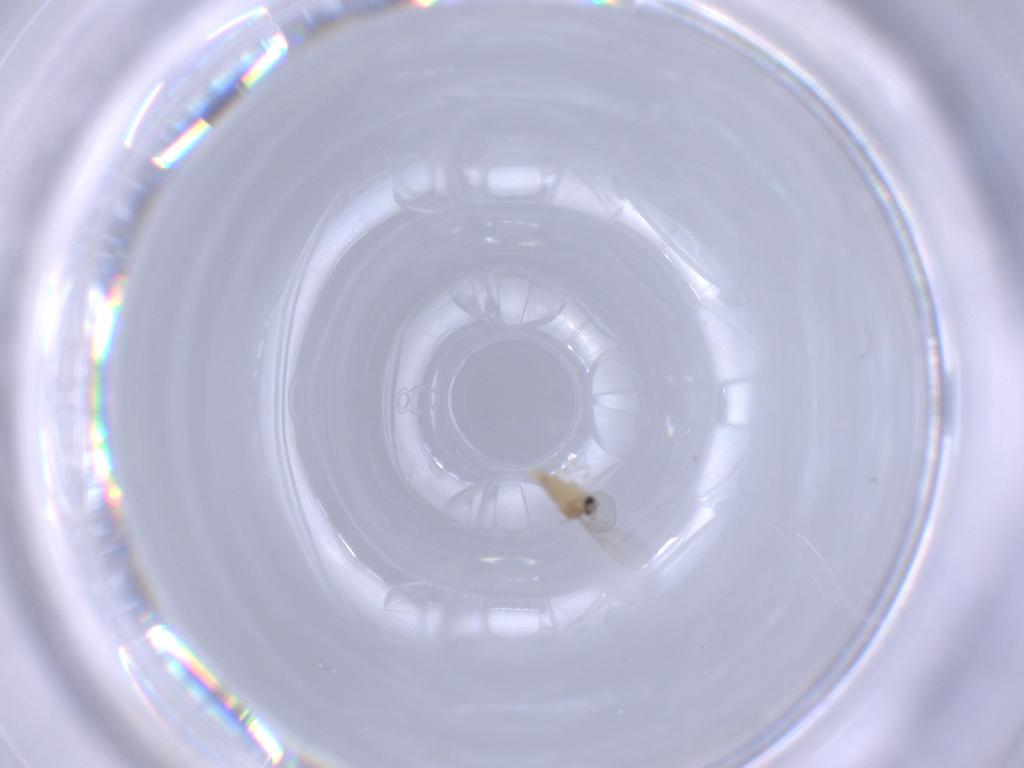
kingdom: Animalia
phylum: Arthropoda
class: Insecta
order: Diptera
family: Cecidomyiidae
